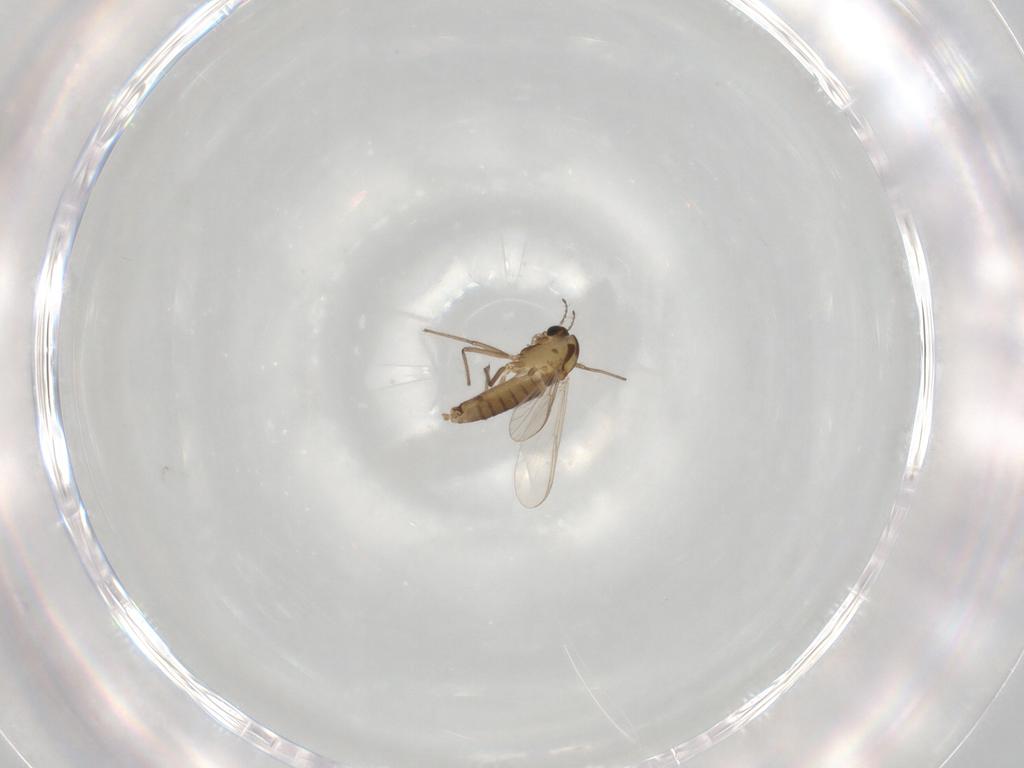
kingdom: Animalia
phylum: Arthropoda
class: Insecta
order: Diptera
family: Chironomidae
